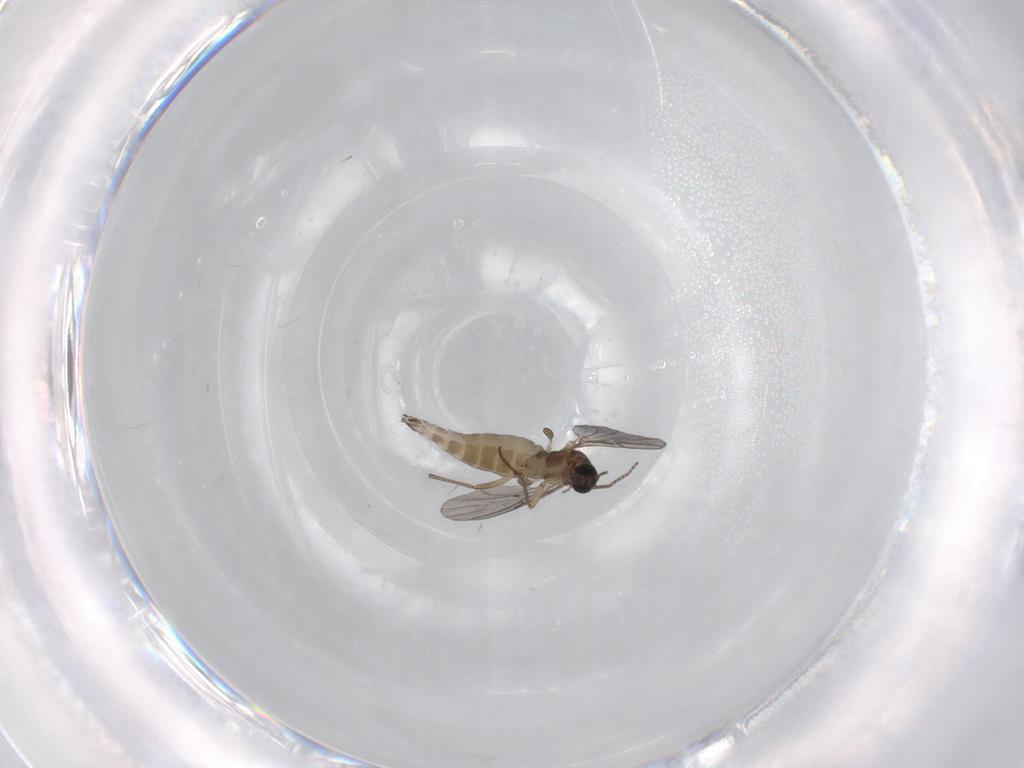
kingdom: Animalia
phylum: Arthropoda
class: Insecta
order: Diptera
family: Sciaridae
